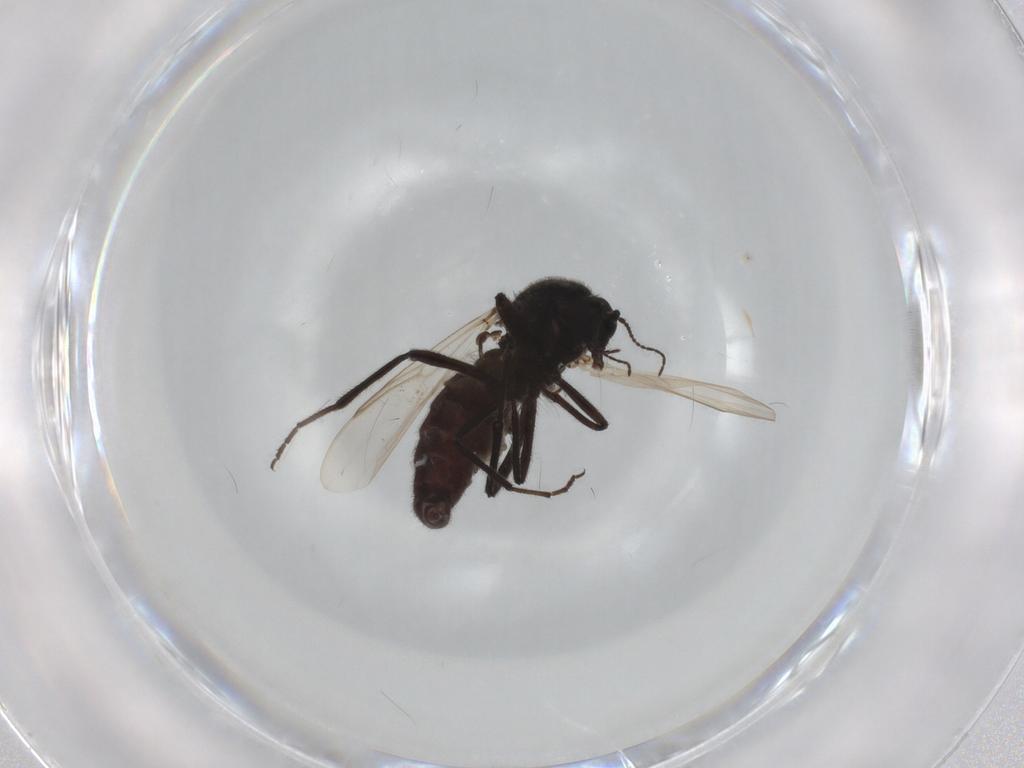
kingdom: Animalia
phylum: Arthropoda
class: Insecta
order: Diptera
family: Ceratopogonidae
